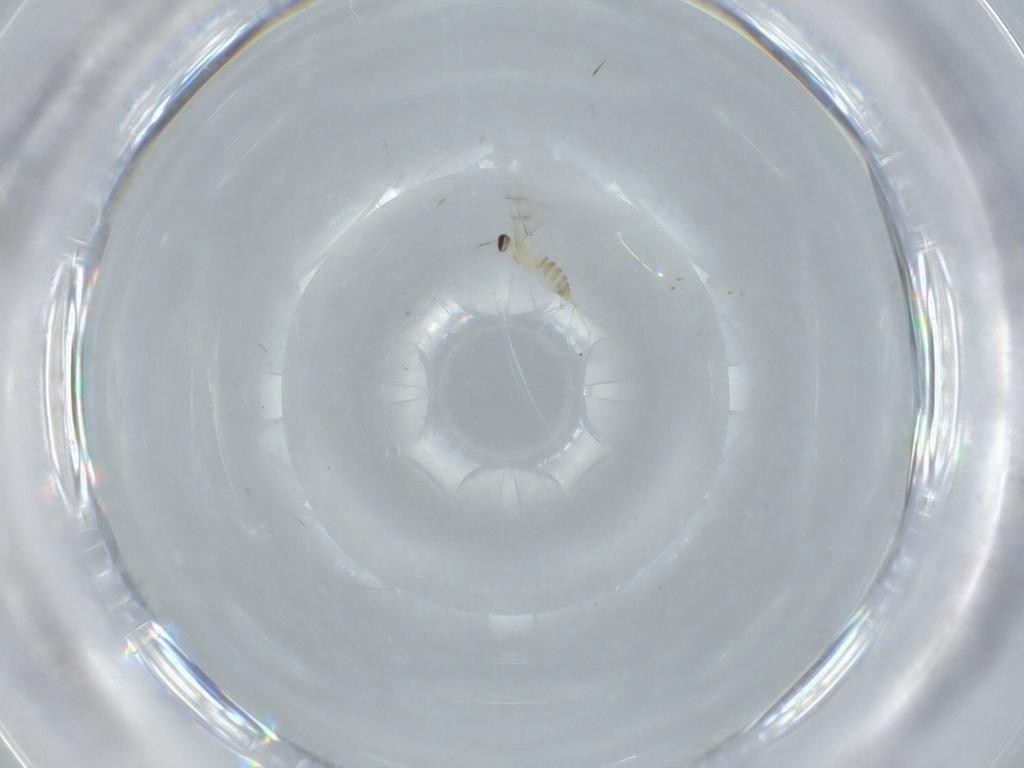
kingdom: Animalia
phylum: Arthropoda
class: Insecta
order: Diptera
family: Cecidomyiidae
